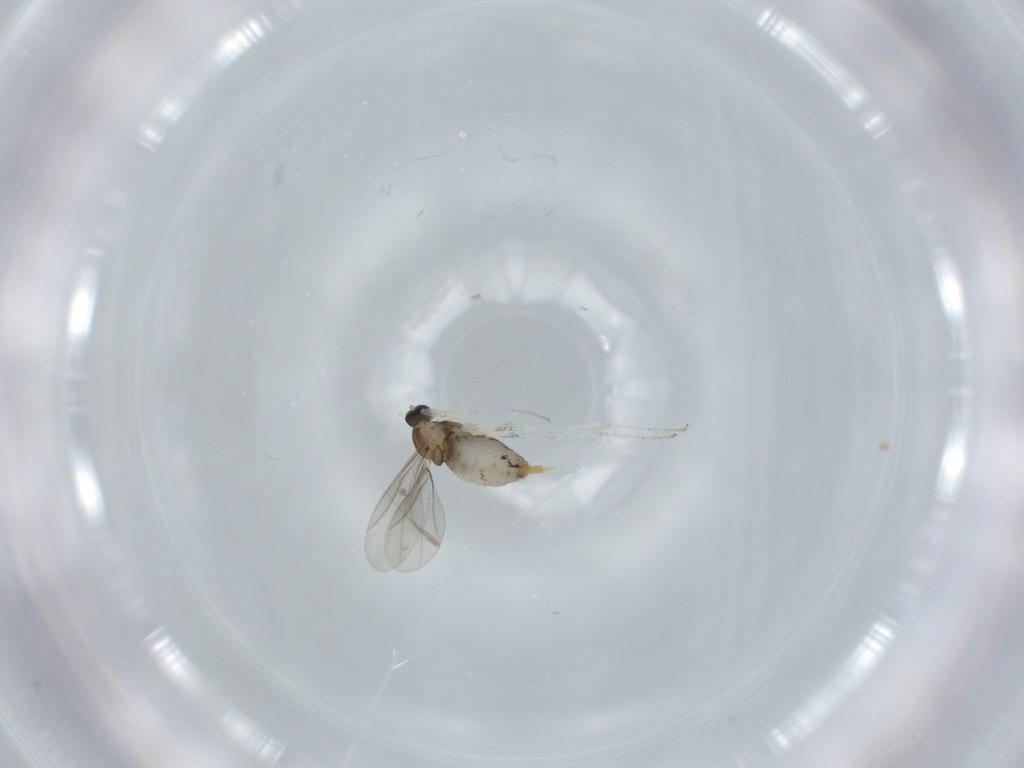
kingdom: Animalia
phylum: Arthropoda
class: Insecta
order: Diptera
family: Cecidomyiidae
